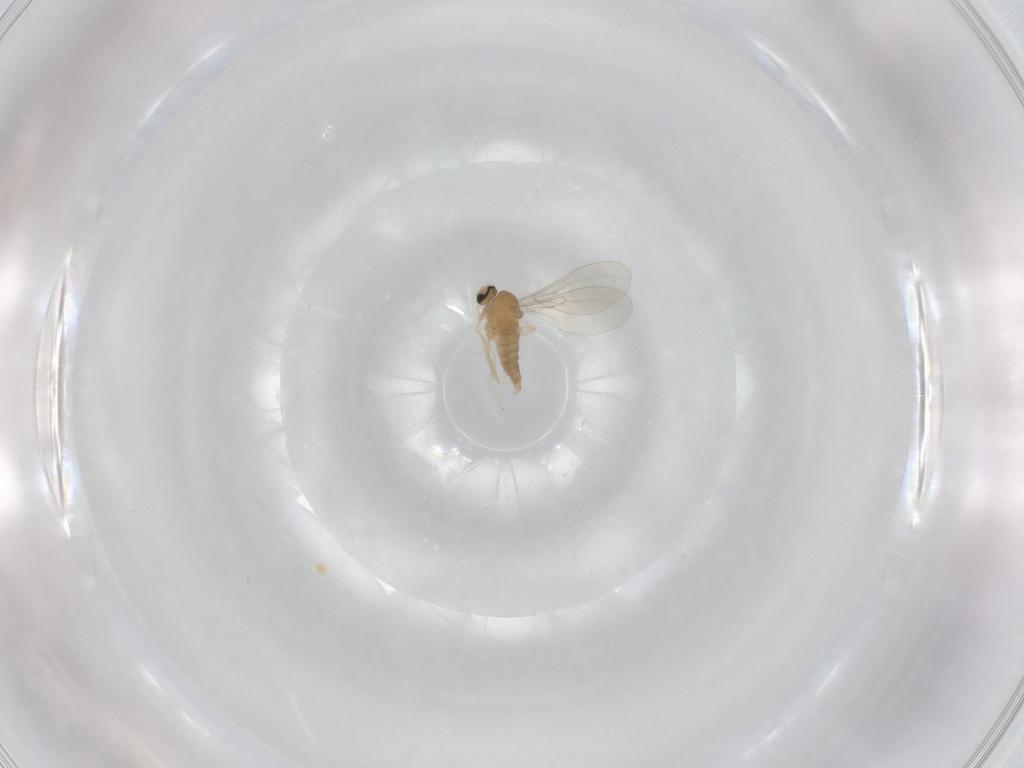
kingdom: Animalia
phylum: Arthropoda
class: Insecta
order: Diptera
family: Cecidomyiidae
